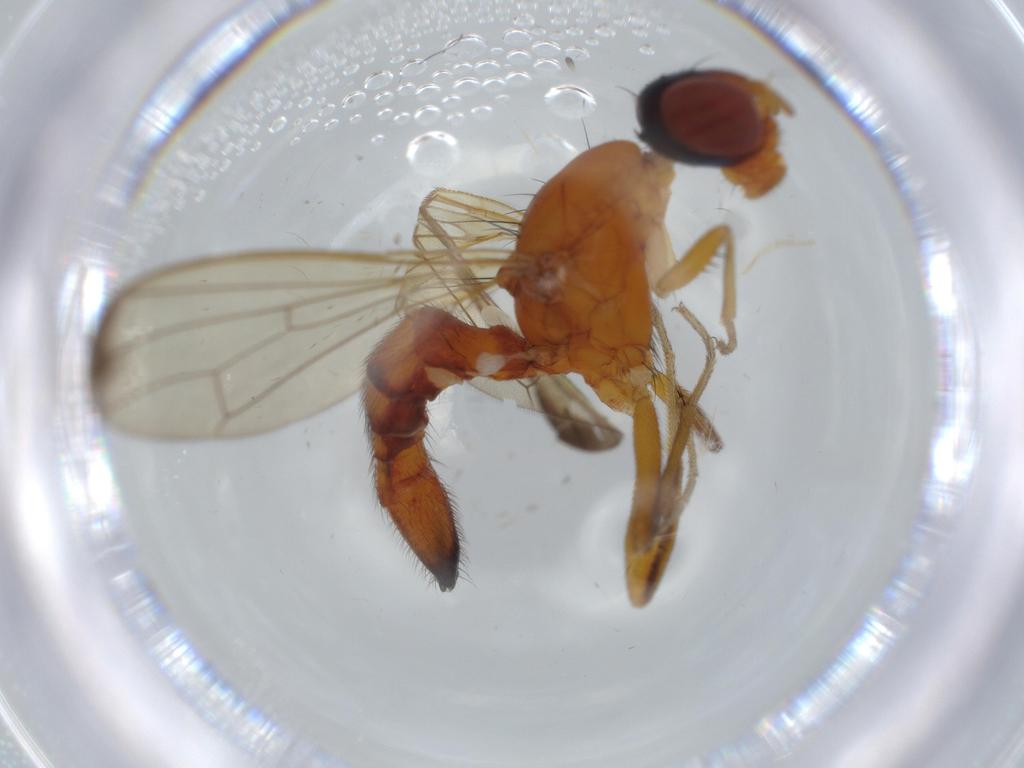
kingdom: Animalia
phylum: Arthropoda
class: Insecta
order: Diptera
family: Richardiidae
